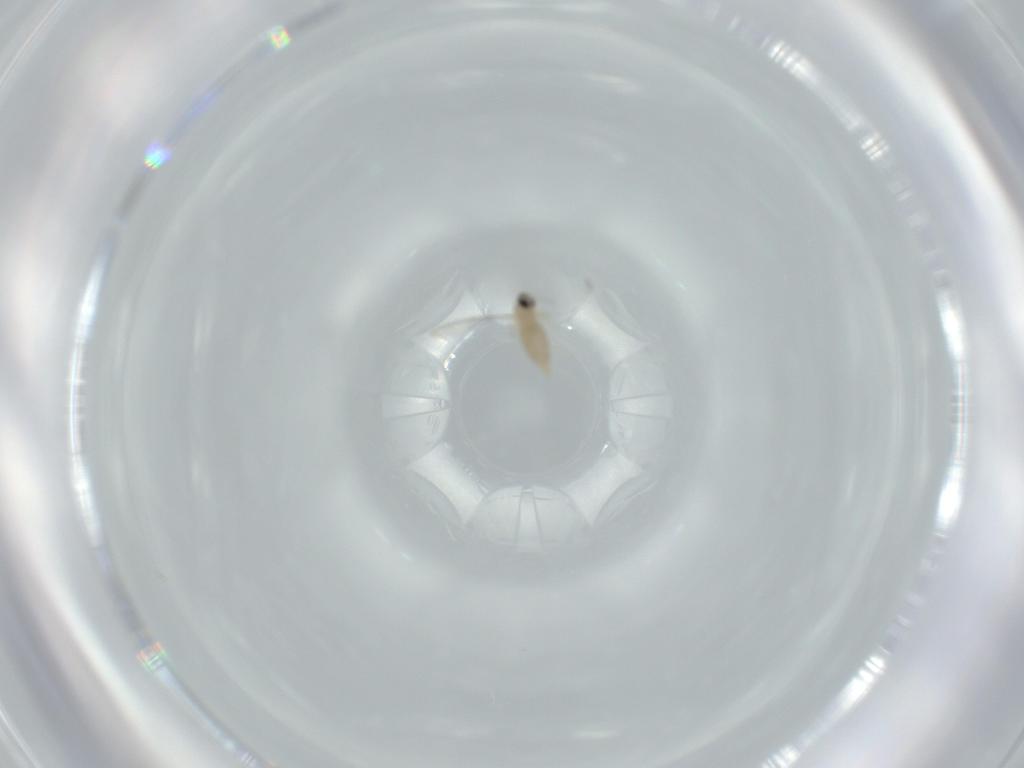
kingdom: Animalia
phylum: Arthropoda
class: Insecta
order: Diptera
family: Cecidomyiidae
